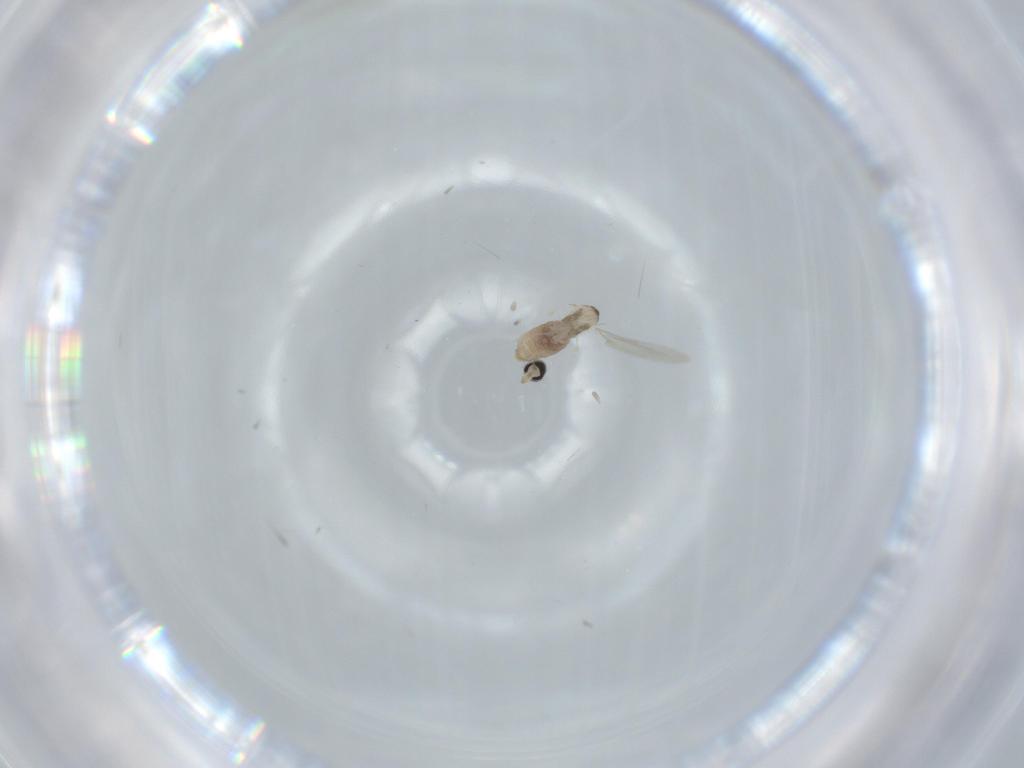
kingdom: Animalia
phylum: Arthropoda
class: Insecta
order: Diptera
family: Cecidomyiidae
